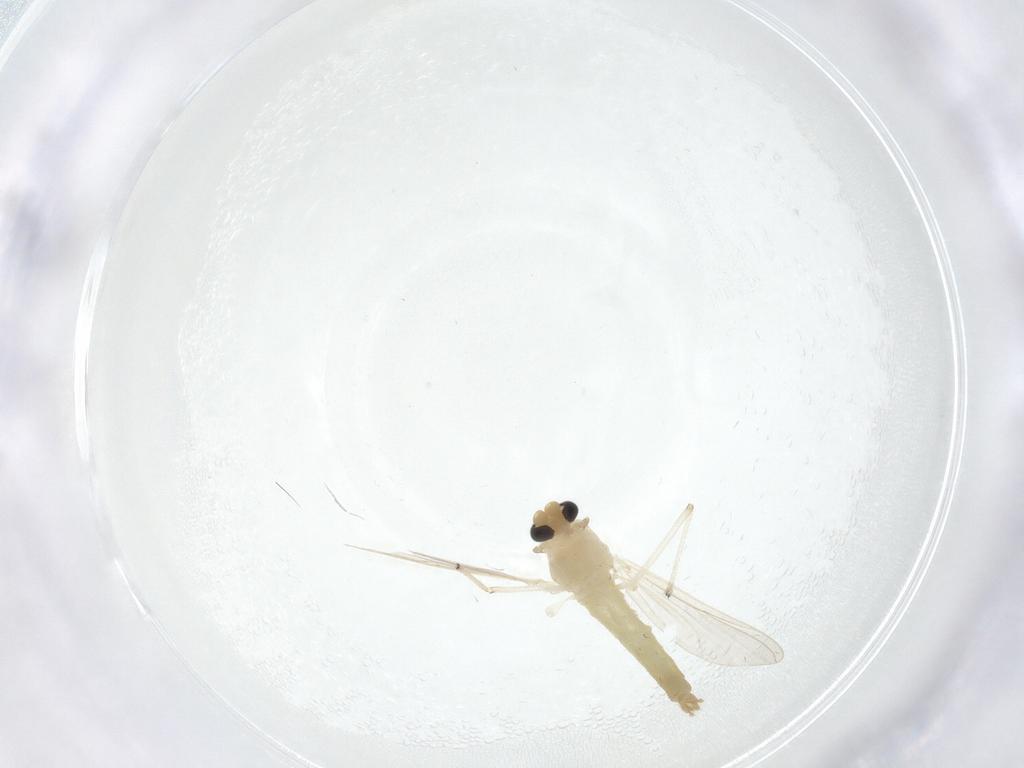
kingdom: Animalia
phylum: Arthropoda
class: Insecta
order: Diptera
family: Chironomidae
